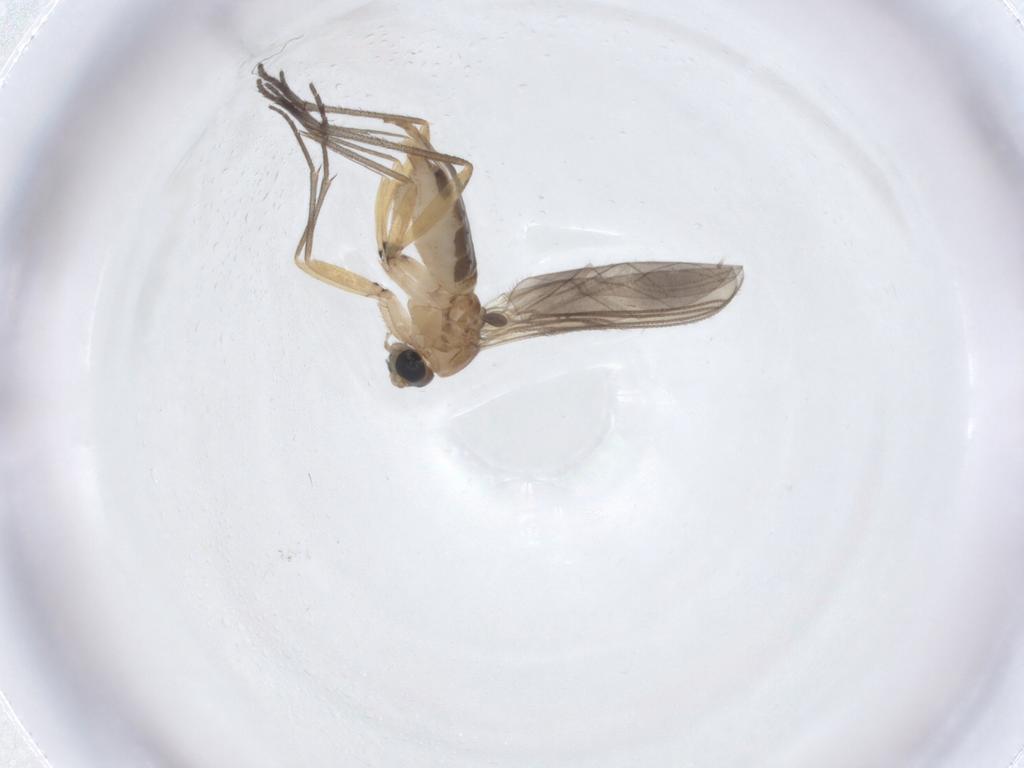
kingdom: Animalia
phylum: Arthropoda
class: Insecta
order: Diptera
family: Sciaridae
